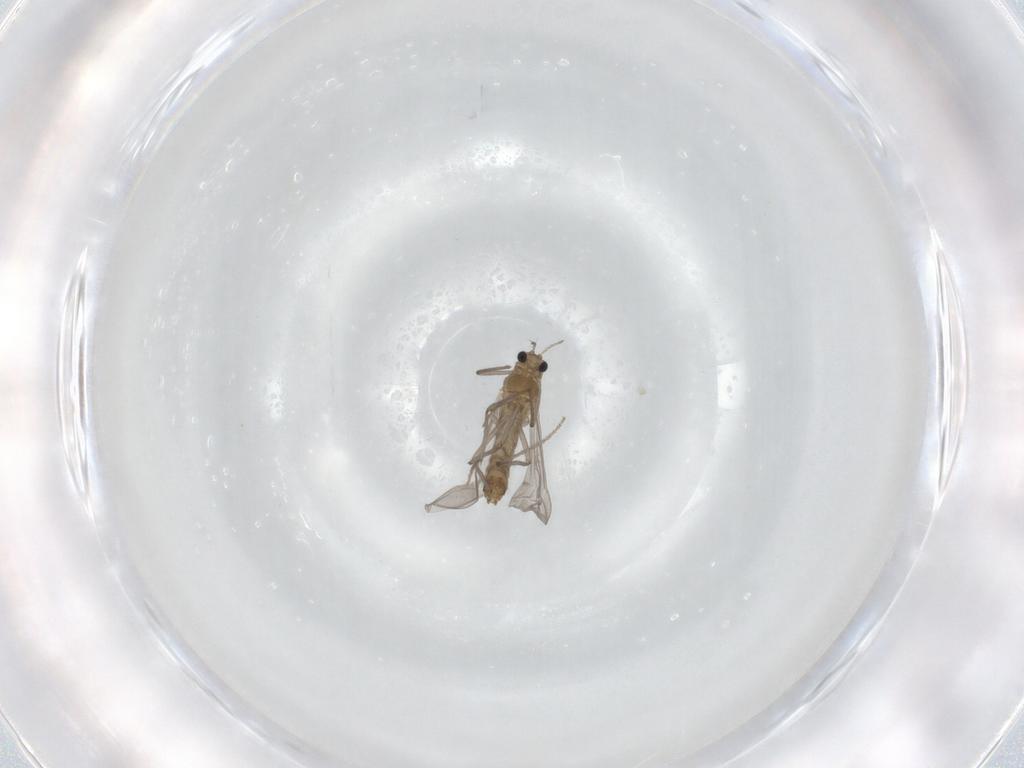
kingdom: Animalia
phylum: Arthropoda
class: Insecta
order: Diptera
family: Chironomidae
